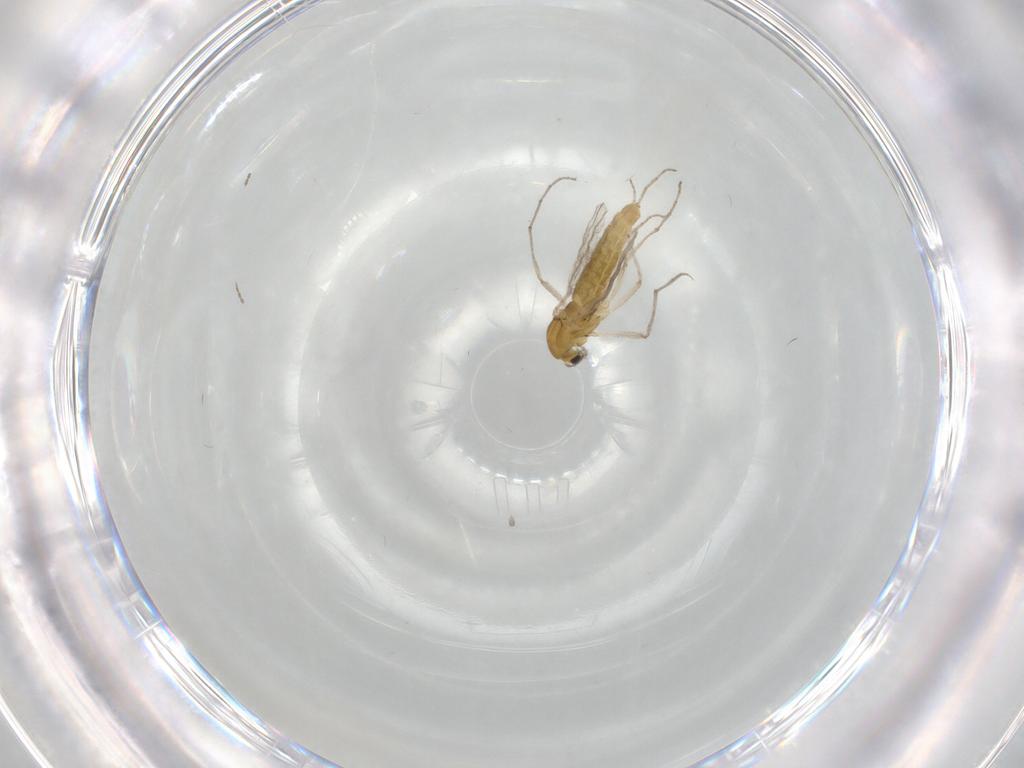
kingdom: Animalia
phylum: Arthropoda
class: Insecta
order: Diptera
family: Chironomidae
